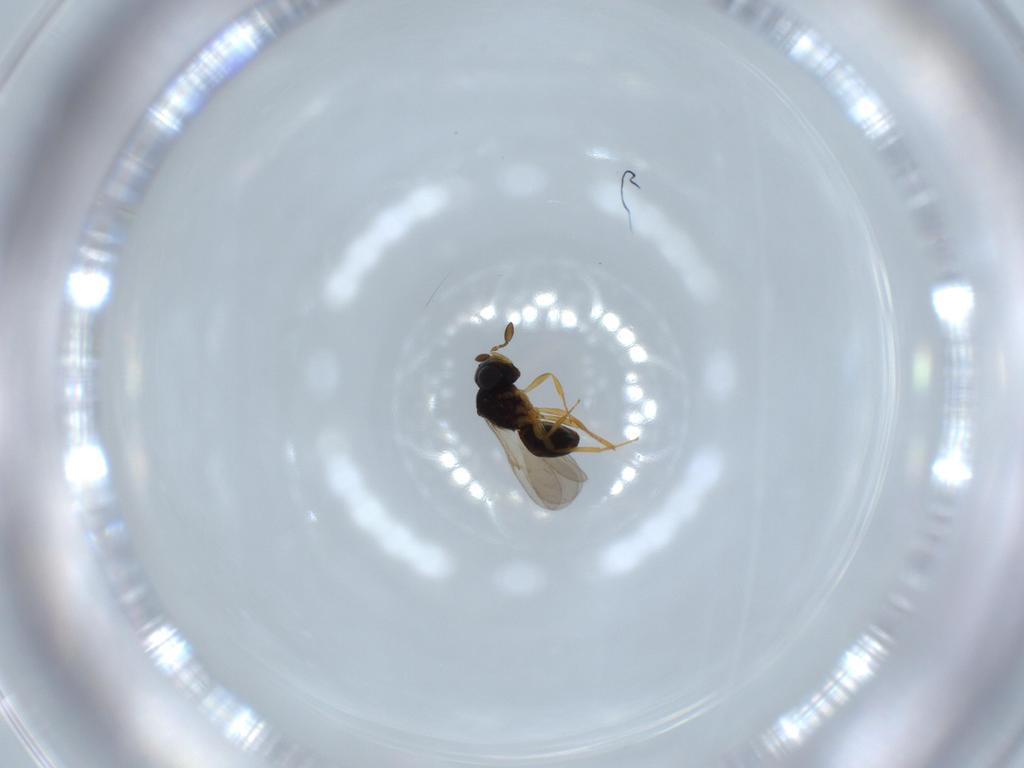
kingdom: Animalia
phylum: Arthropoda
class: Insecta
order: Hymenoptera
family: Scelionidae
